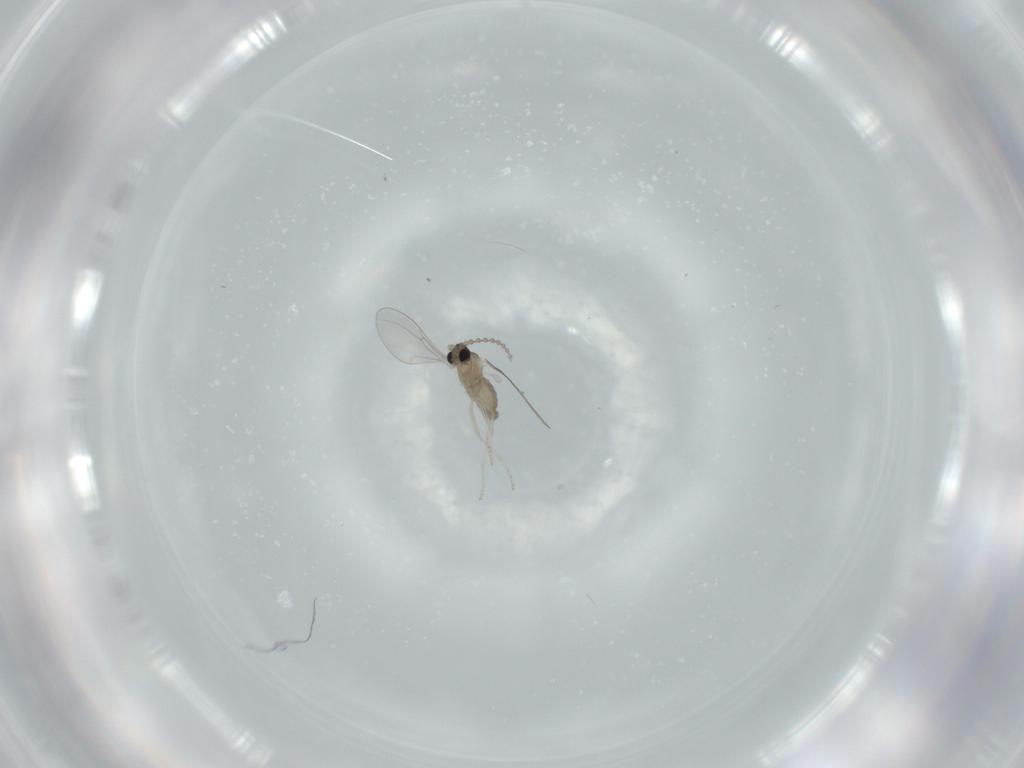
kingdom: Animalia
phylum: Arthropoda
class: Insecta
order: Diptera
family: Cecidomyiidae
